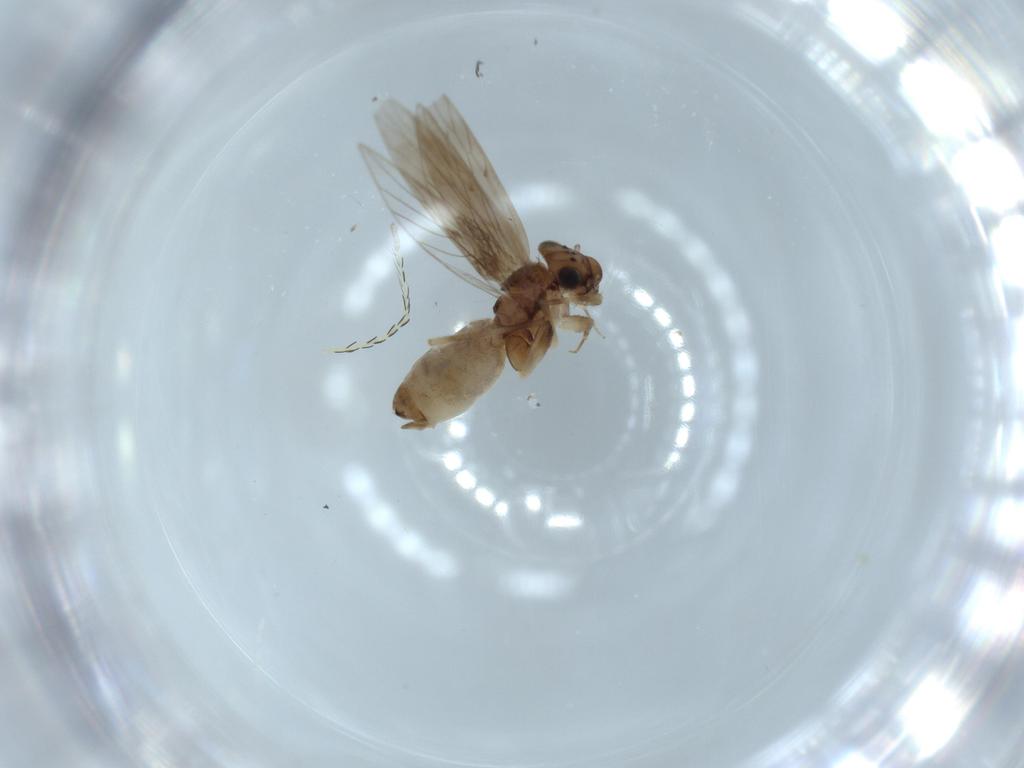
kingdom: Animalia
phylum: Arthropoda
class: Insecta
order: Psocodea
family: Lepidopsocidae
